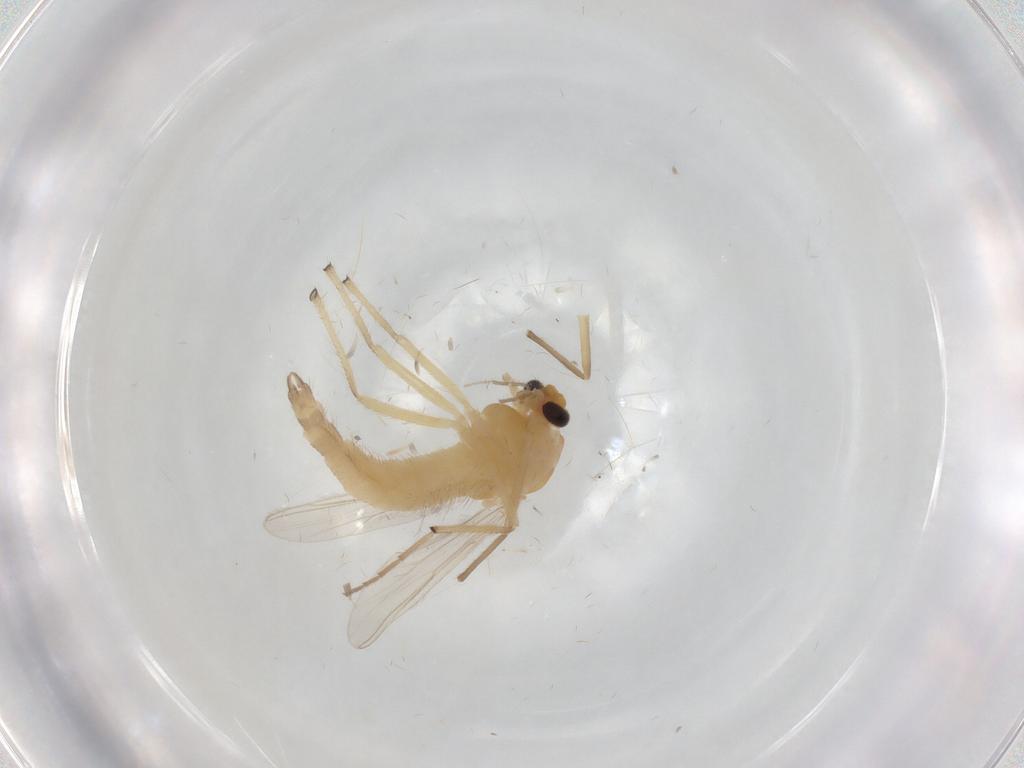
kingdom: Animalia
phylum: Arthropoda
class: Insecta
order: Diptera
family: Chironomidae
